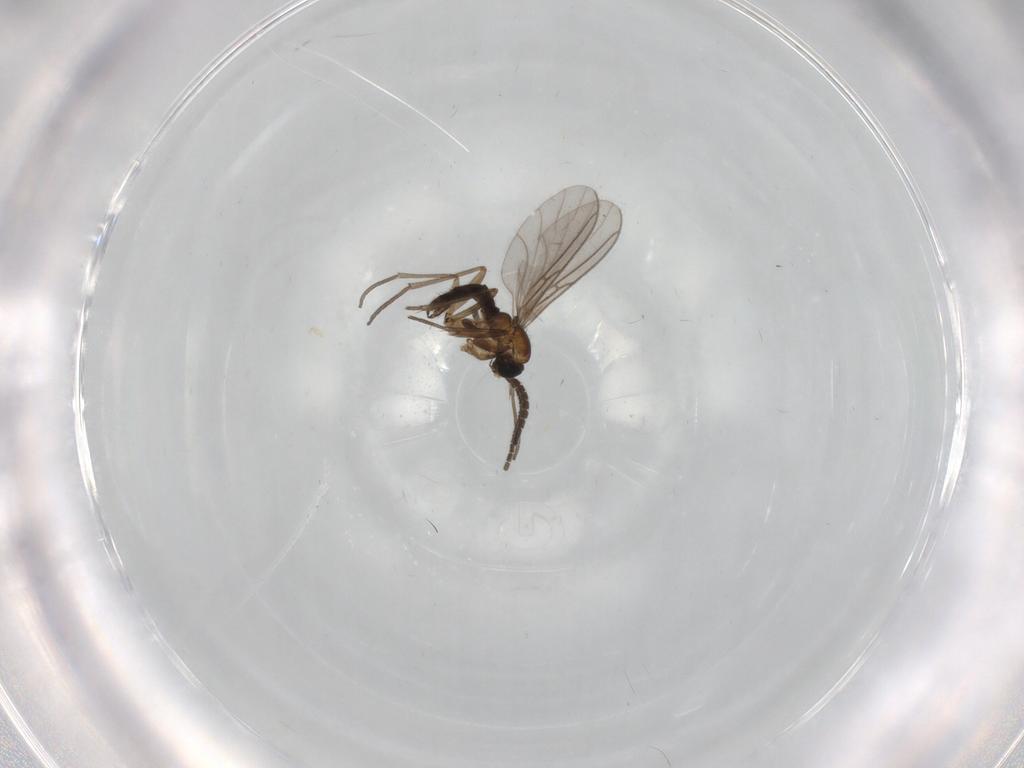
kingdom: Animalia
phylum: Arthropoda
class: Insecta
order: Diptera
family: Sciaridae
